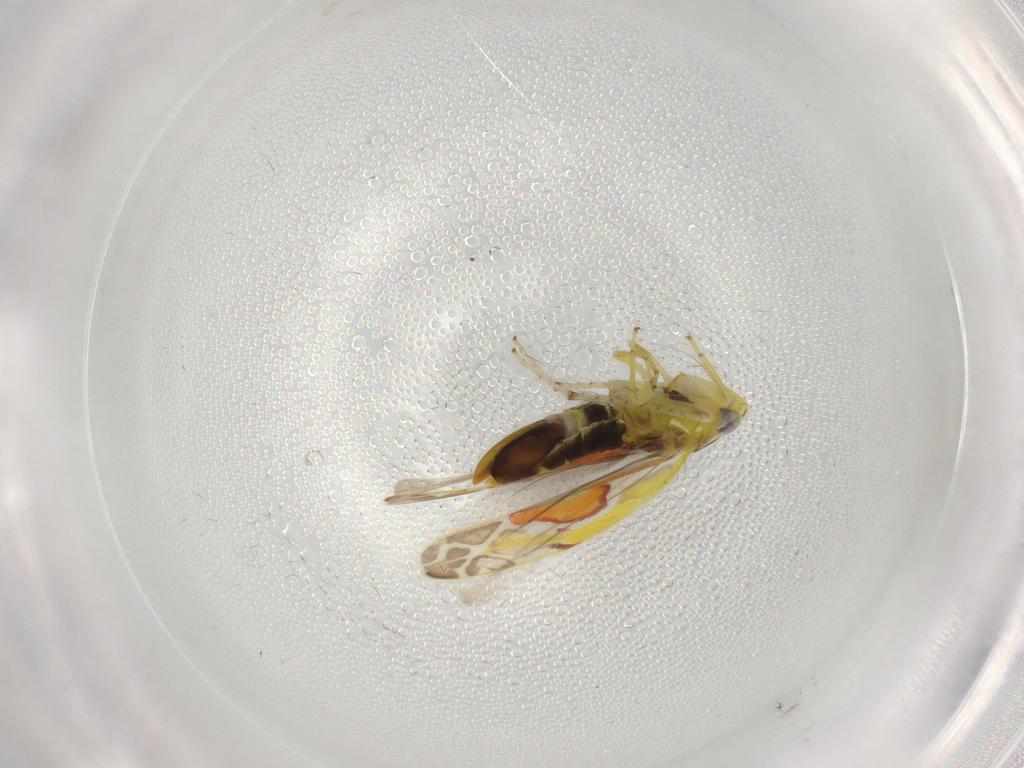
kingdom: Animalia
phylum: Arthropoda
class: Insecta
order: Hemiptera
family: Cicadellidae
